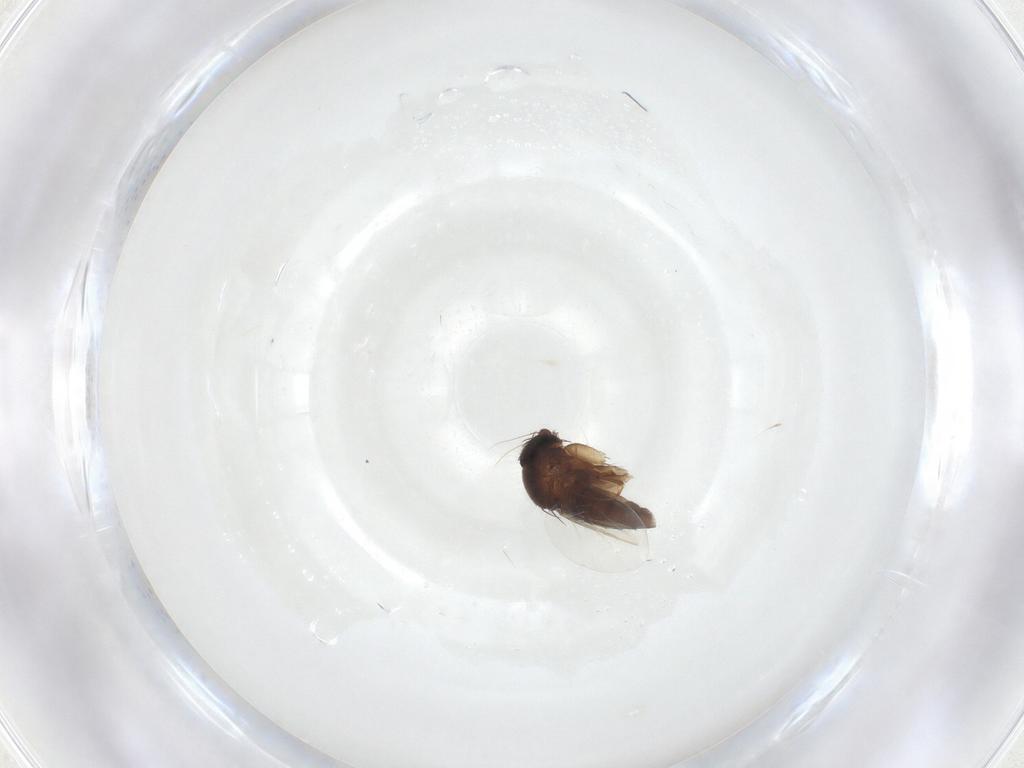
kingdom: Animalia
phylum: Arthropoda
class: Insecta
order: Diptera
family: Phoridae
